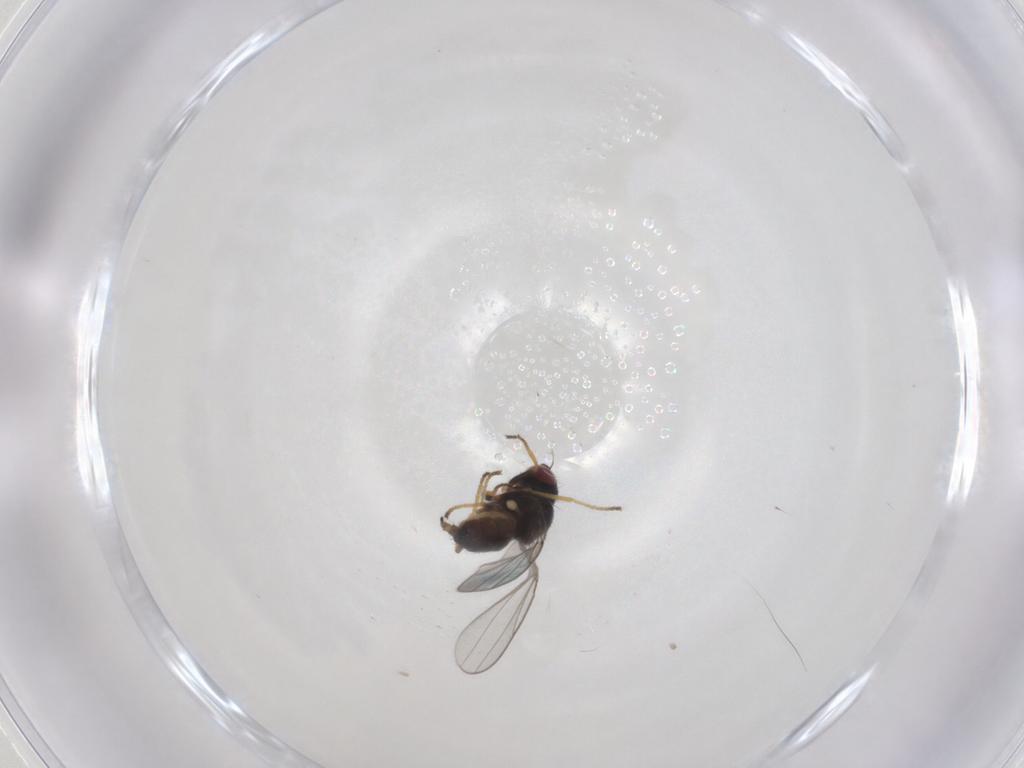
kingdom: Animalia
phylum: Arthropoda
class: Insecta
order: Diptera
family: Chloropidae
